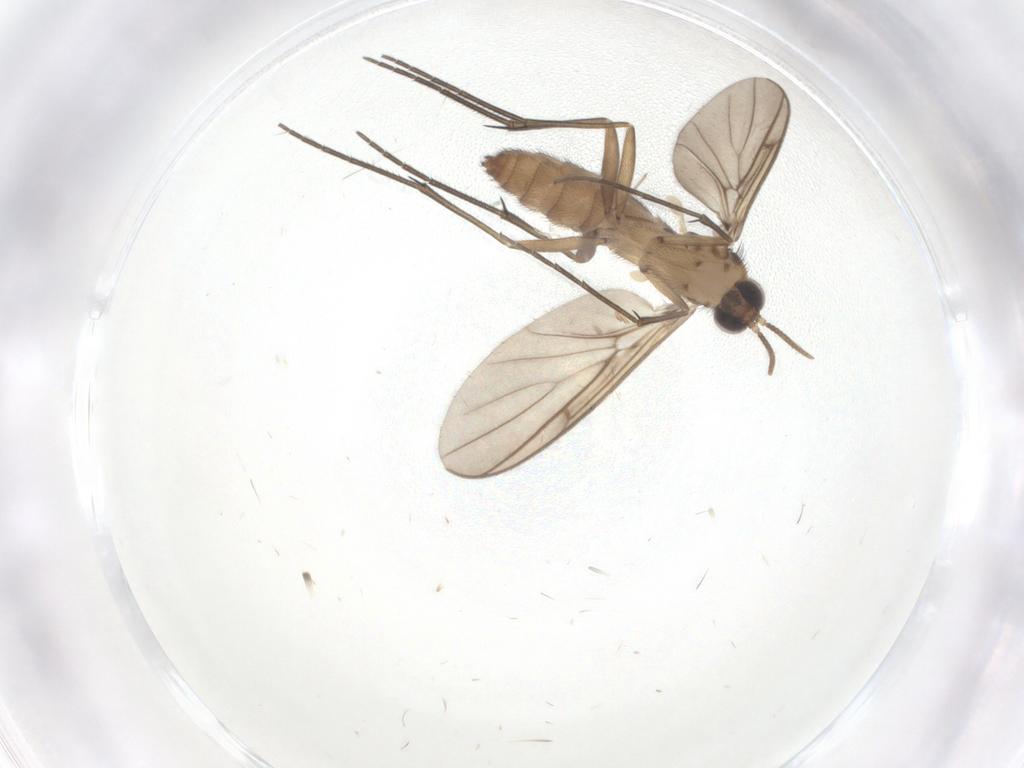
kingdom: Animalia
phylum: Arthropoda
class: Insecta
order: Diptera
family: Keroplatidae
